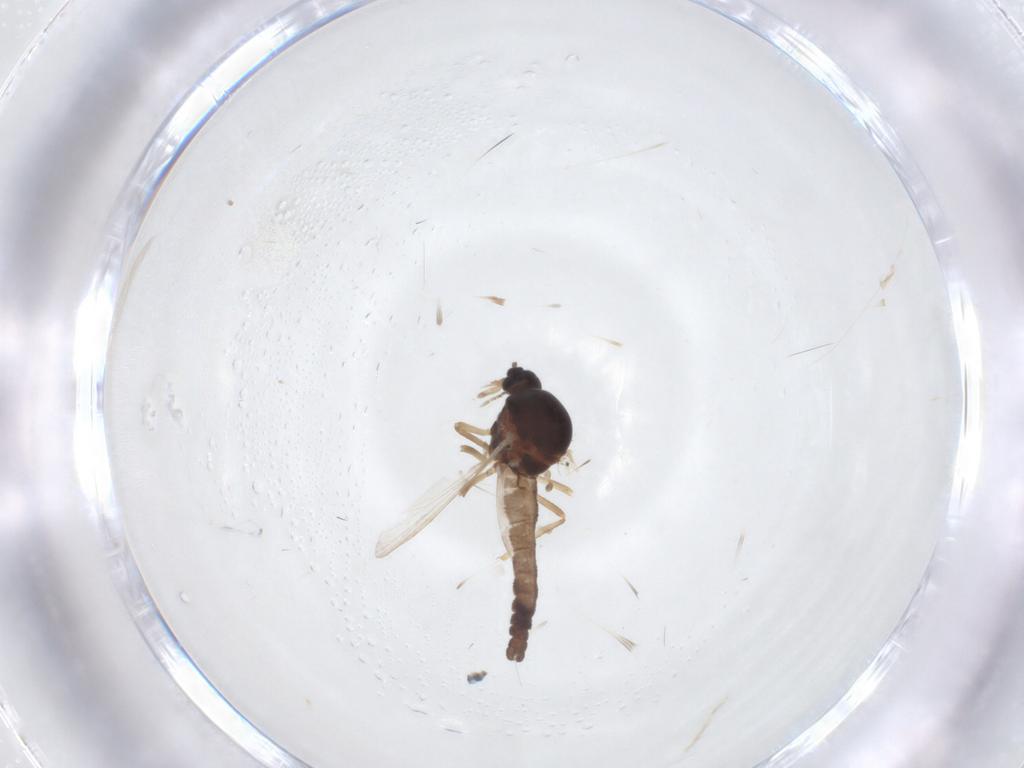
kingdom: Animalia
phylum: Arthropoda
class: Insecta
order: Diptera
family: Ceratopogonidae
